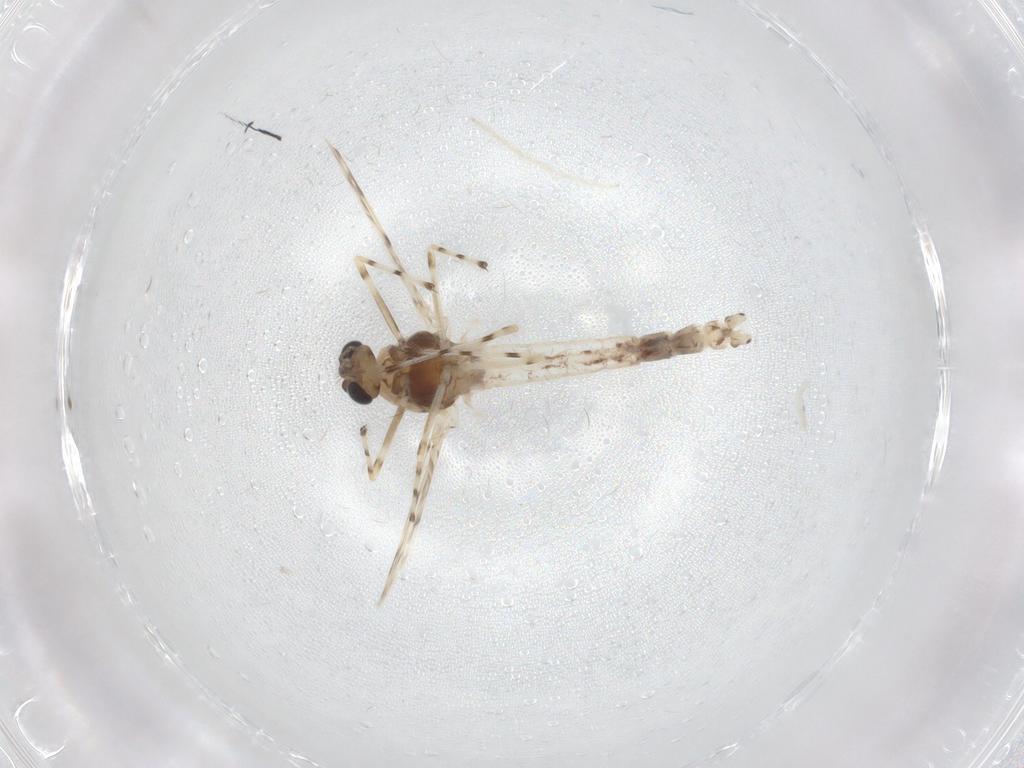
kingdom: Animalia
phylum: Arthropoda
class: Insecta
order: Diptera
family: Chironomidae
